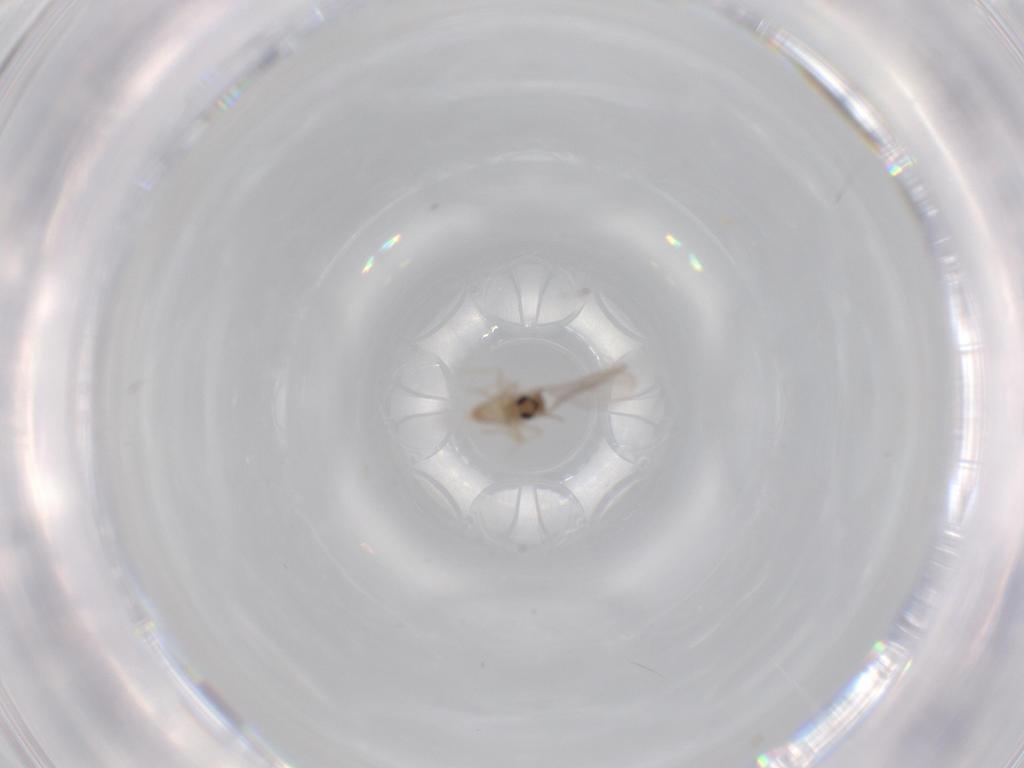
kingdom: Animalia
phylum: Arthropoda
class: Insecta
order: Diptera
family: Cecidomyiidae
